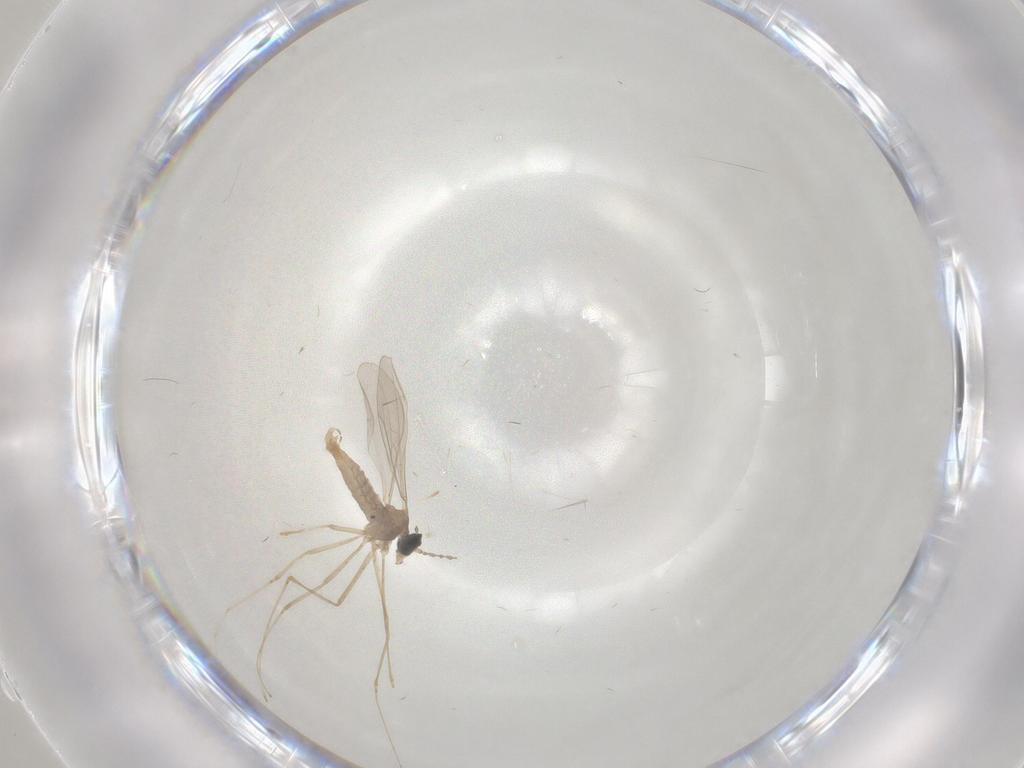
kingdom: Animalia
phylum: Arthropoda
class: Insecta
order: Diptera
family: Cecidomyiidae
